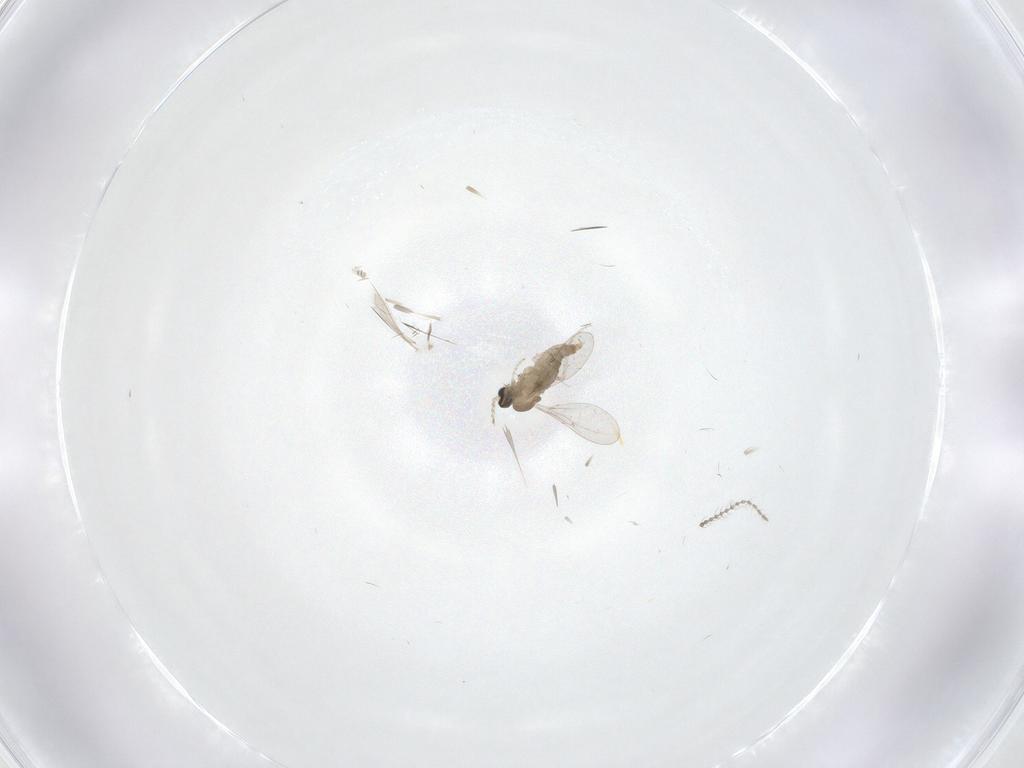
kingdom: Animalia
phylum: Arthropoda
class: Insecta
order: Diptera
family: Ceratopogonidae
